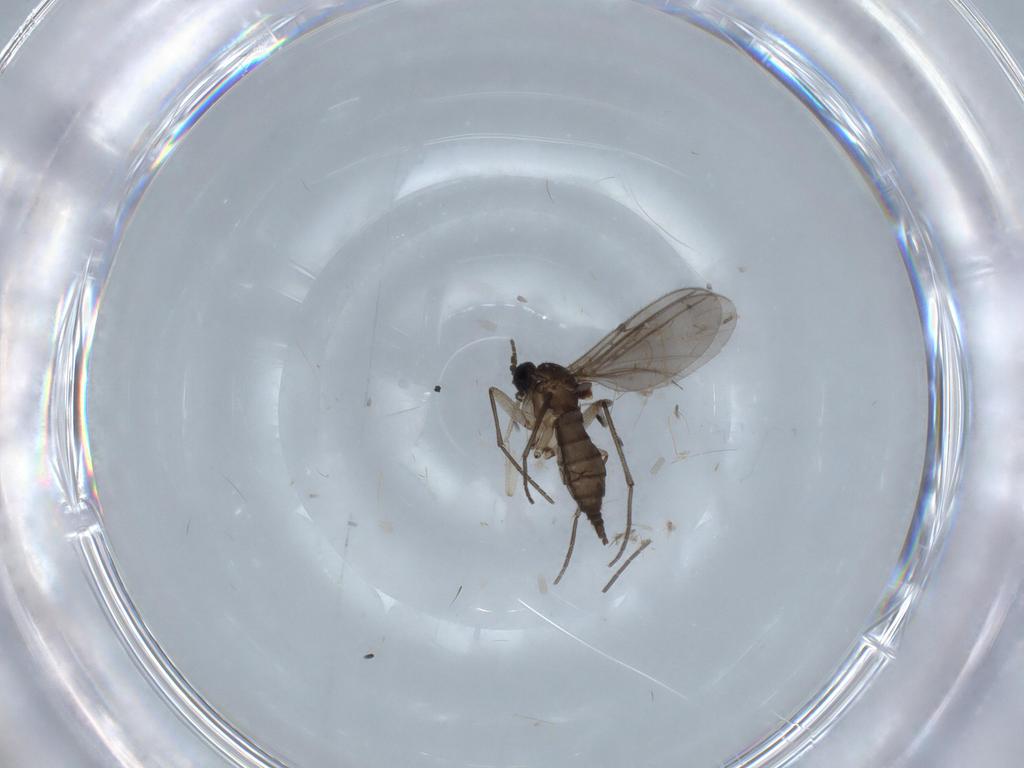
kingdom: Animalia
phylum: Arthropoda
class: Insecta
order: Diptera
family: Sciaridae
